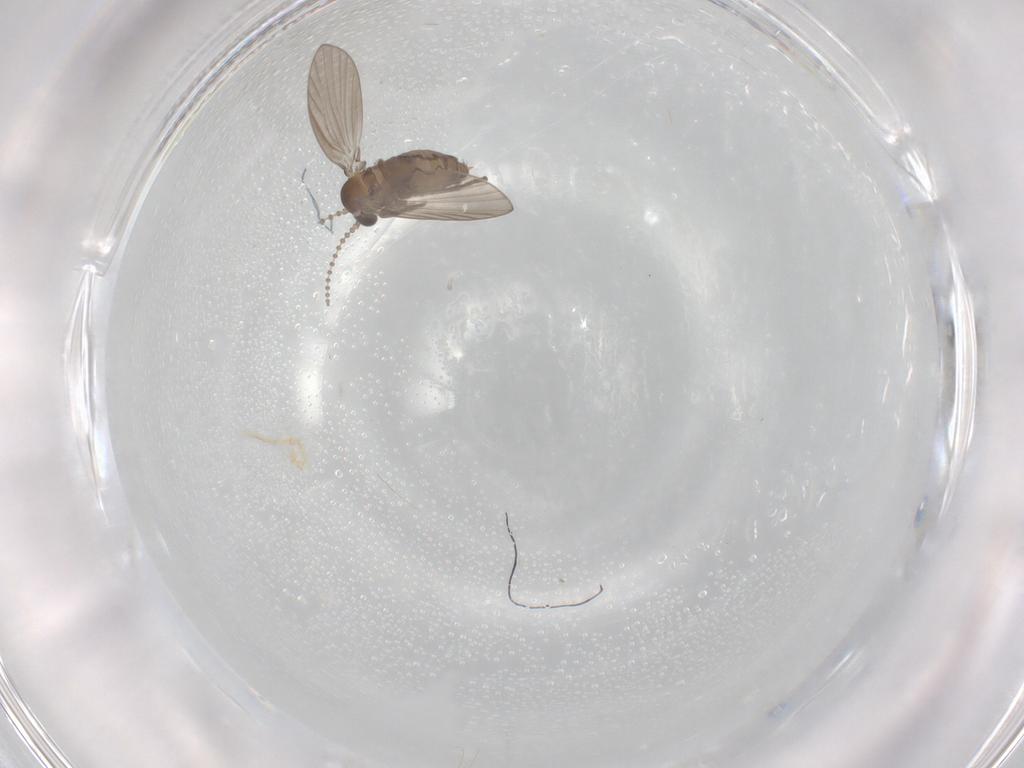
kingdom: Animalia
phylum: Arthropoda
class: Insecta
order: Diptera
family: Psychodidae
